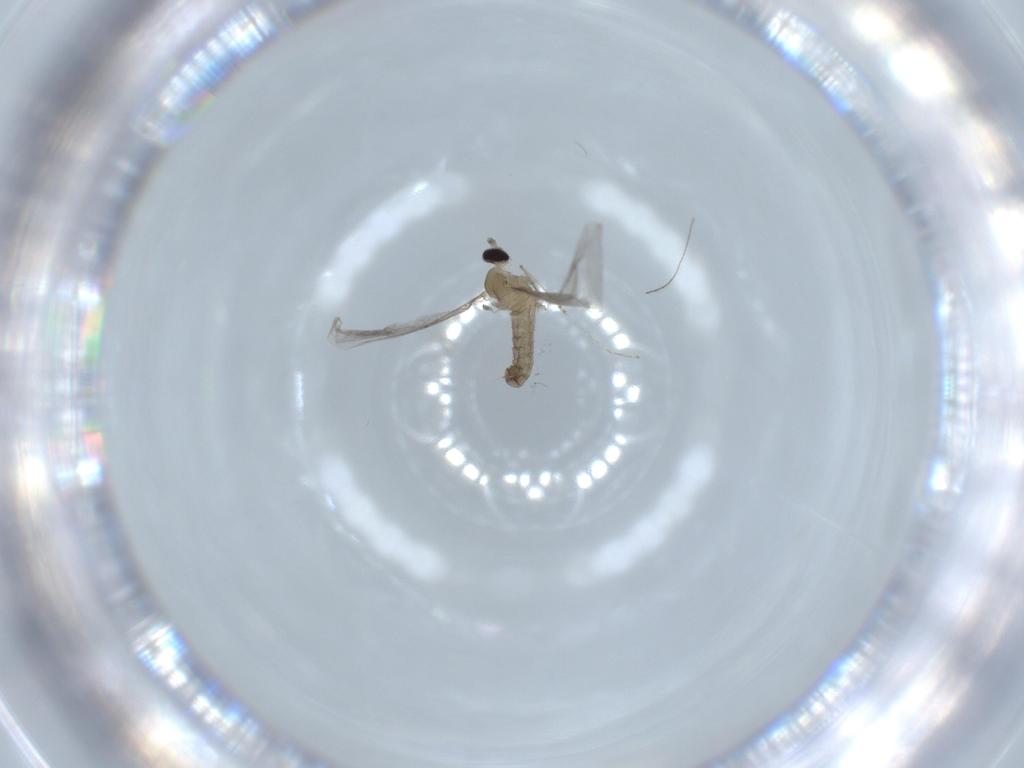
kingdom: Animalia
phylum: Arthropoda
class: Insecta
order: Diptera
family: Cecidomyiidae
